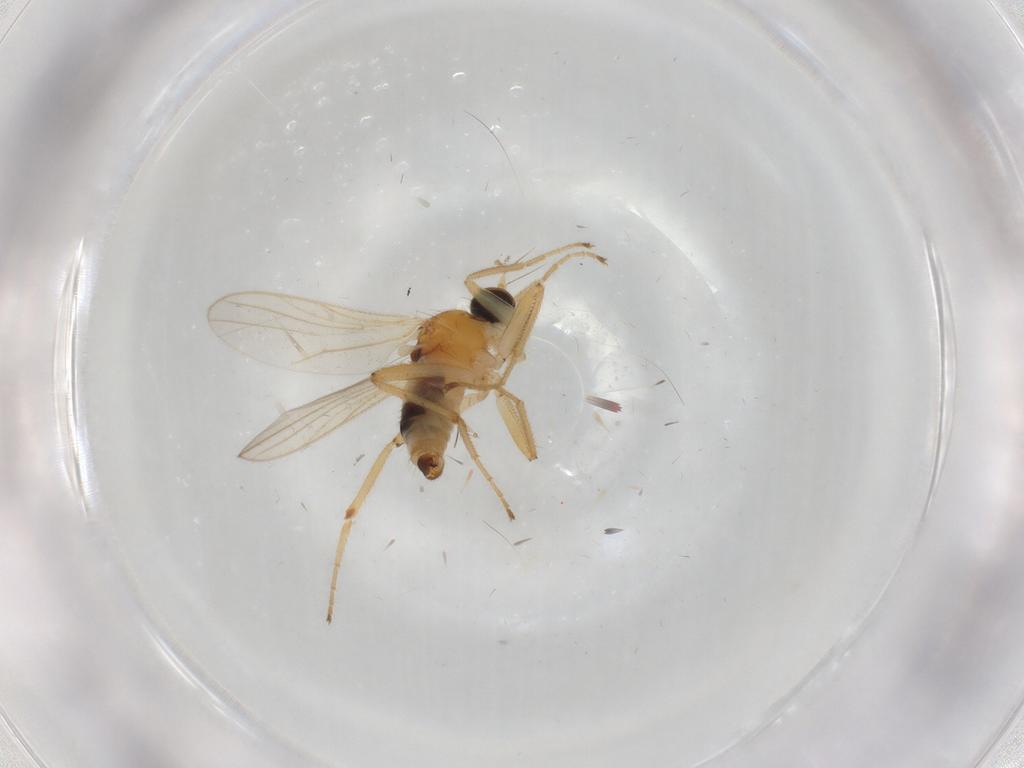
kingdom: Animalia
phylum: Arthropoda
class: Insecta
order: Diptera
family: Hybotidae
